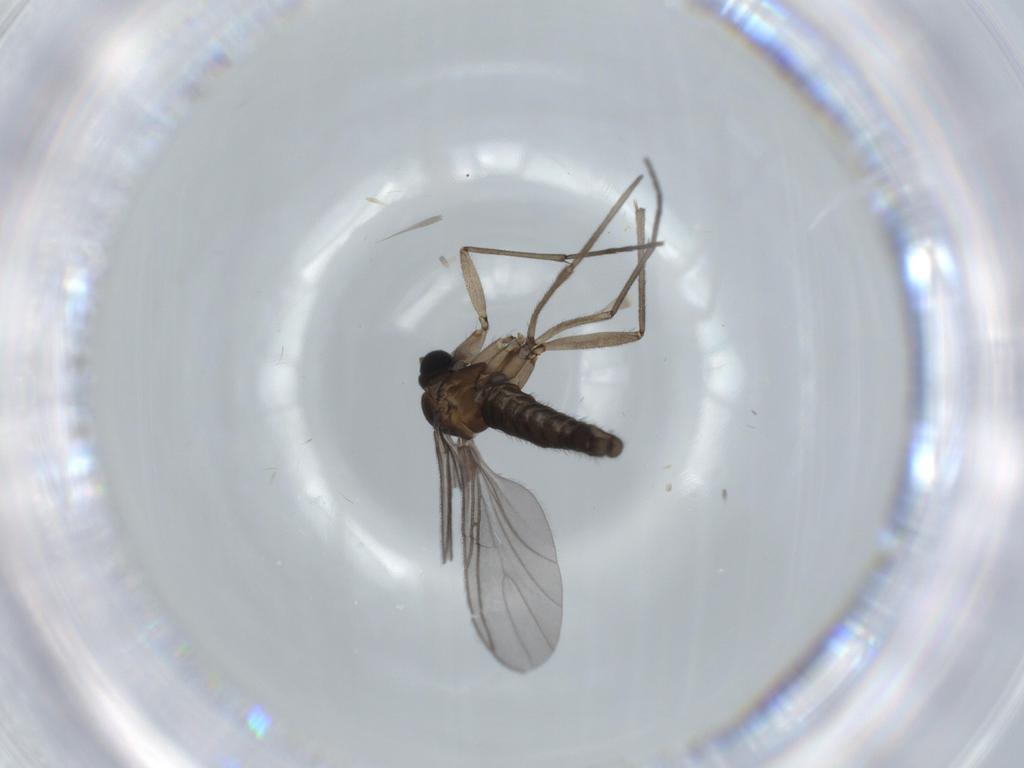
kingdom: Animalia
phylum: Arthropoda
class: Insecta
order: Diptera
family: Sciaridae
